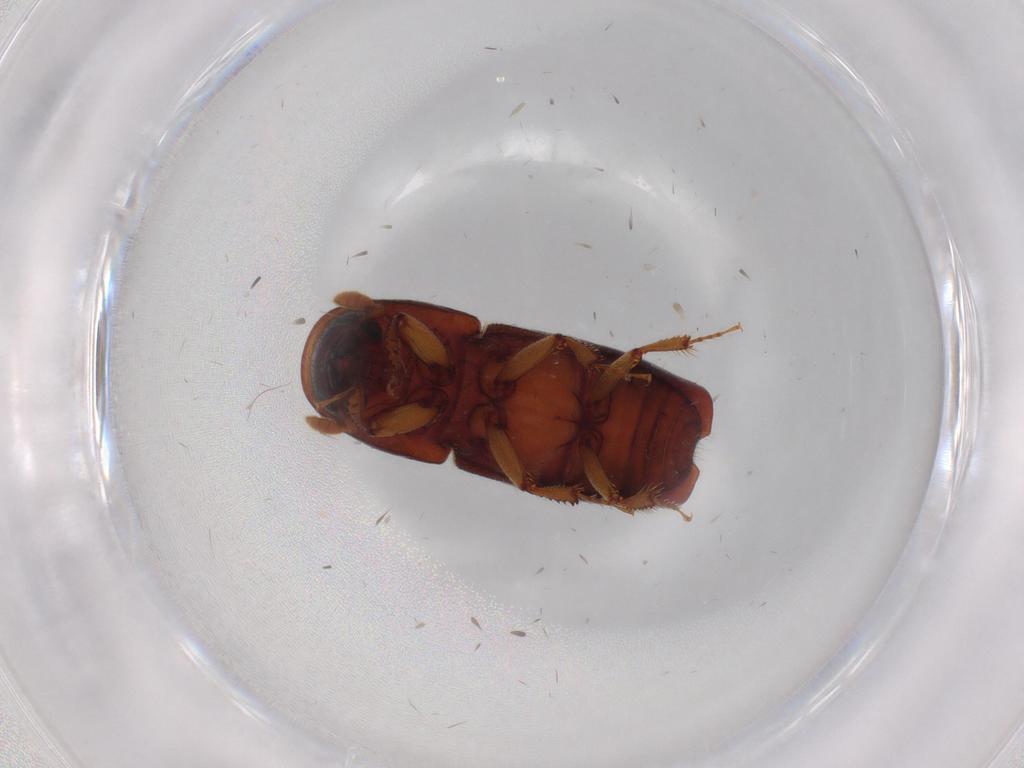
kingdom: Animalia
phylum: Arthropoda
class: Insecta
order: Coleoptera
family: Curculionidae
